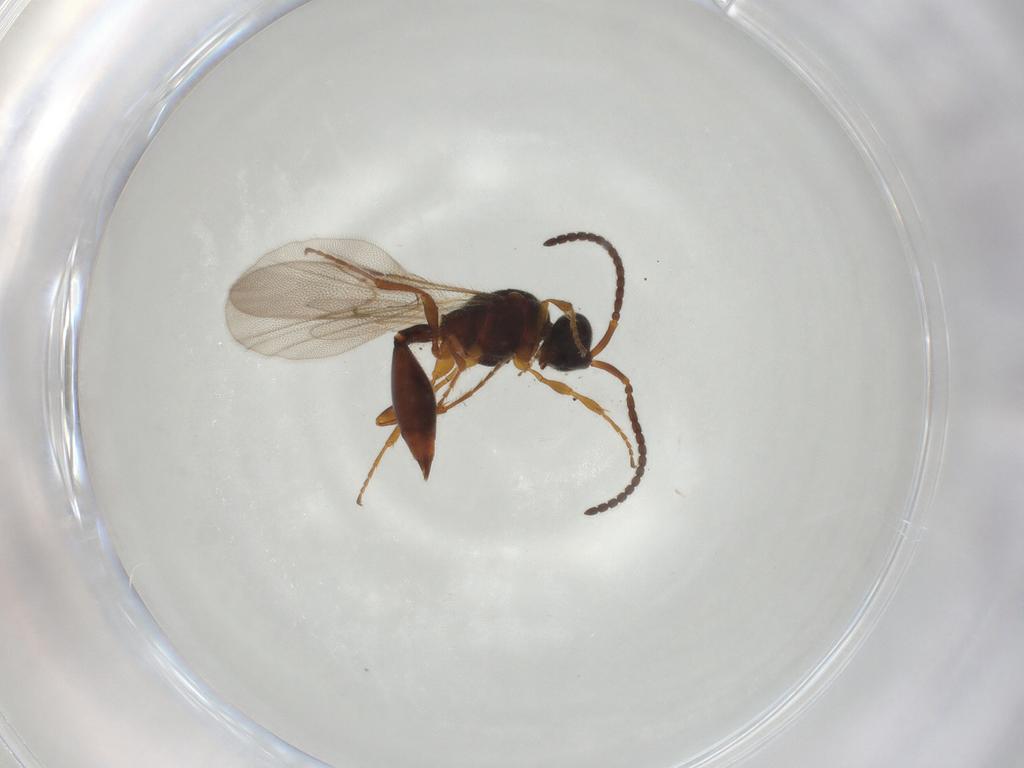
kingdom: Animalia
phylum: Arthropoda
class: Insecta
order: Hymenoptera
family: Diapriidae
